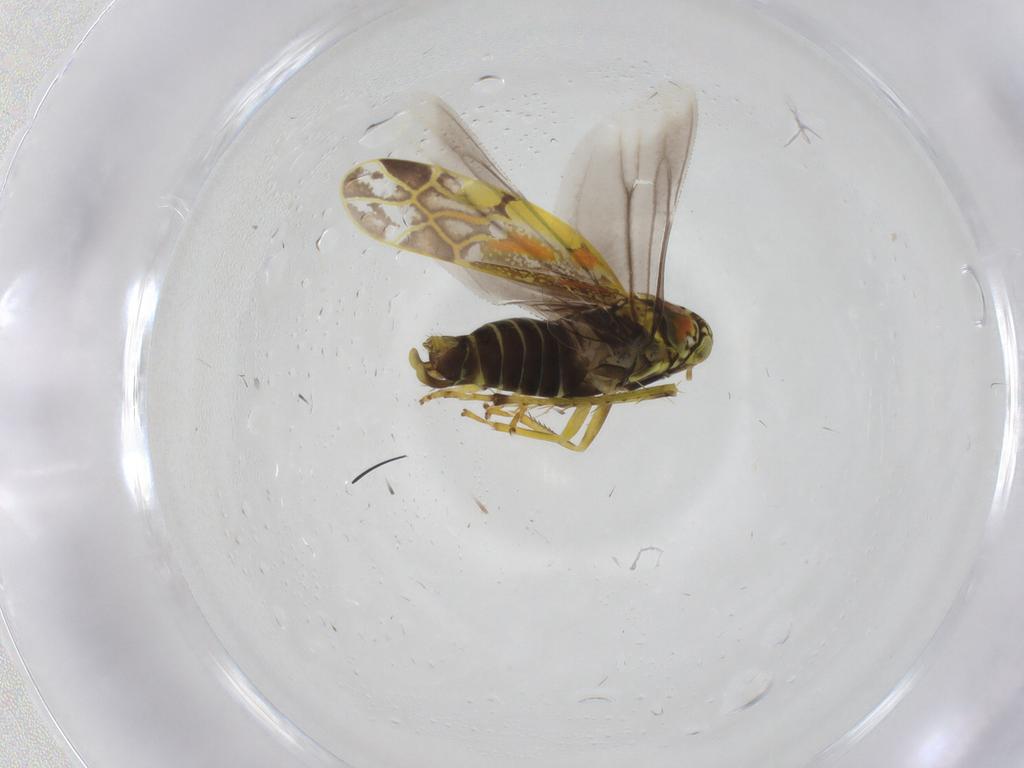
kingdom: Animalia
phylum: Arthropoda
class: Insecta
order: Hemiptera
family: Cicadellidae
